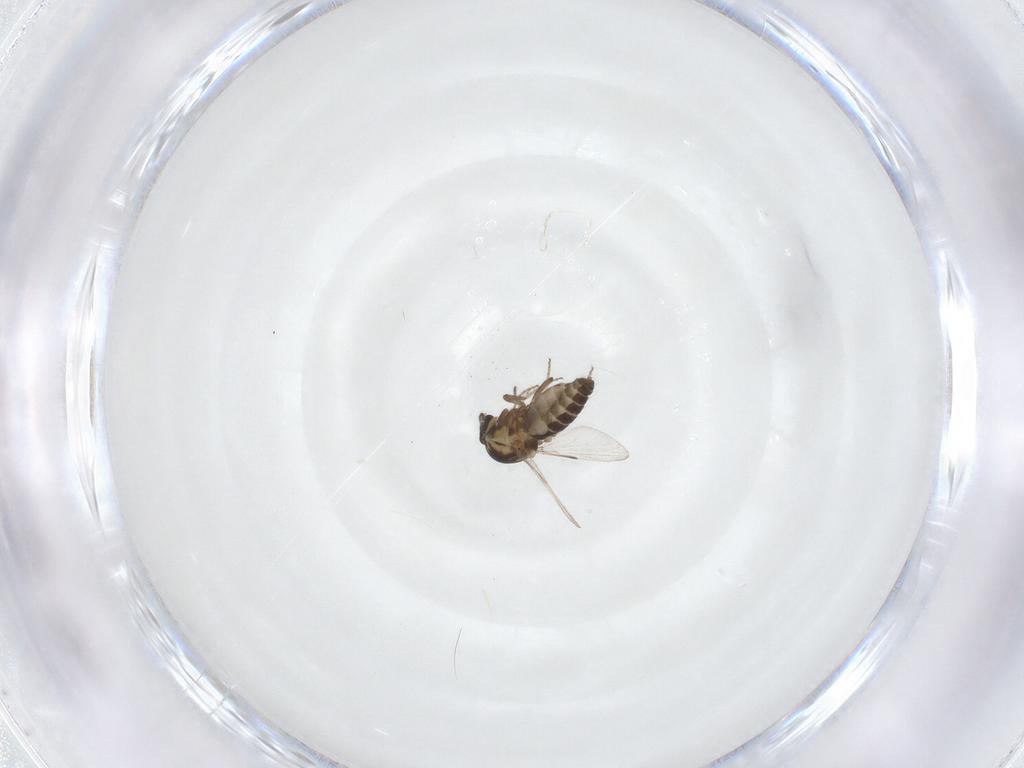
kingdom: Animalia
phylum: Arthropoda
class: Insecta
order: Diptera
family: Ceratopogonidae
